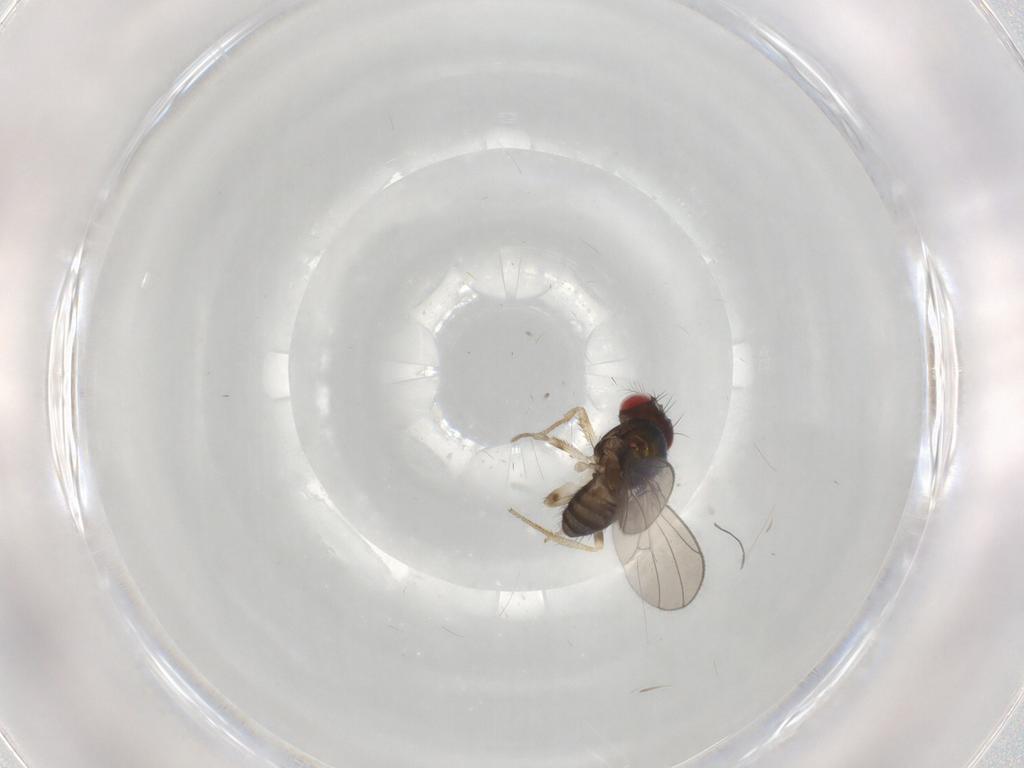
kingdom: Animalia
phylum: Arthropoda
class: Insecta
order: Diptera
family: Drosophilidae
